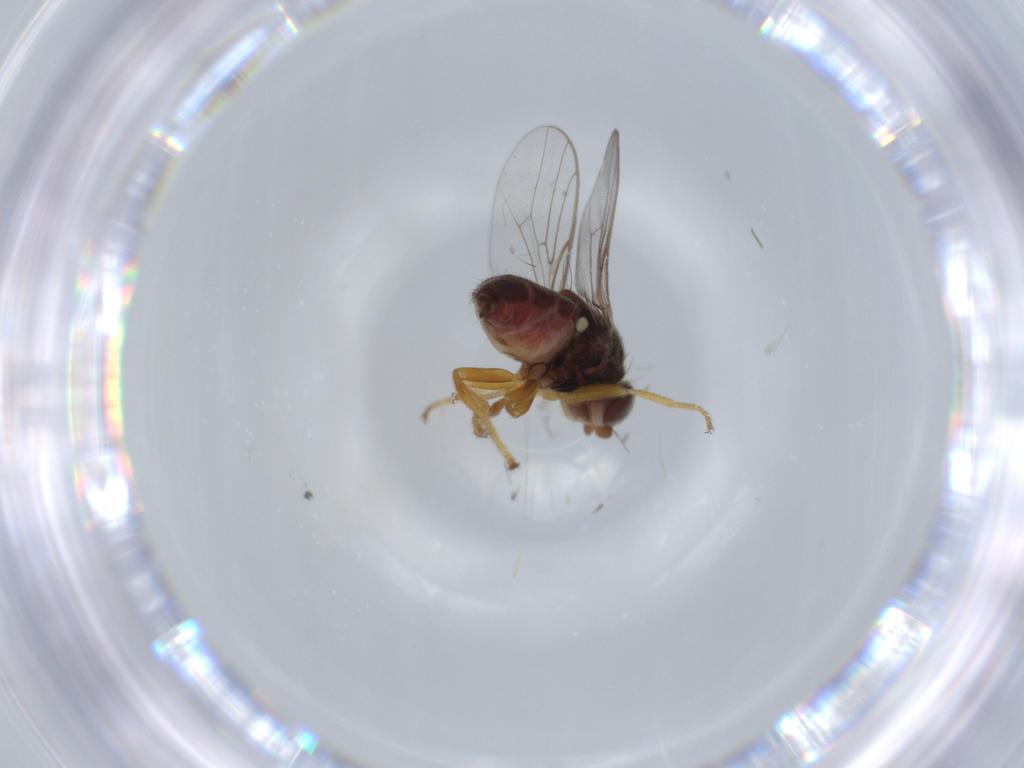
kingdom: Animalia
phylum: Arthropoda
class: Insecta
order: Diptera
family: Chloropidae
